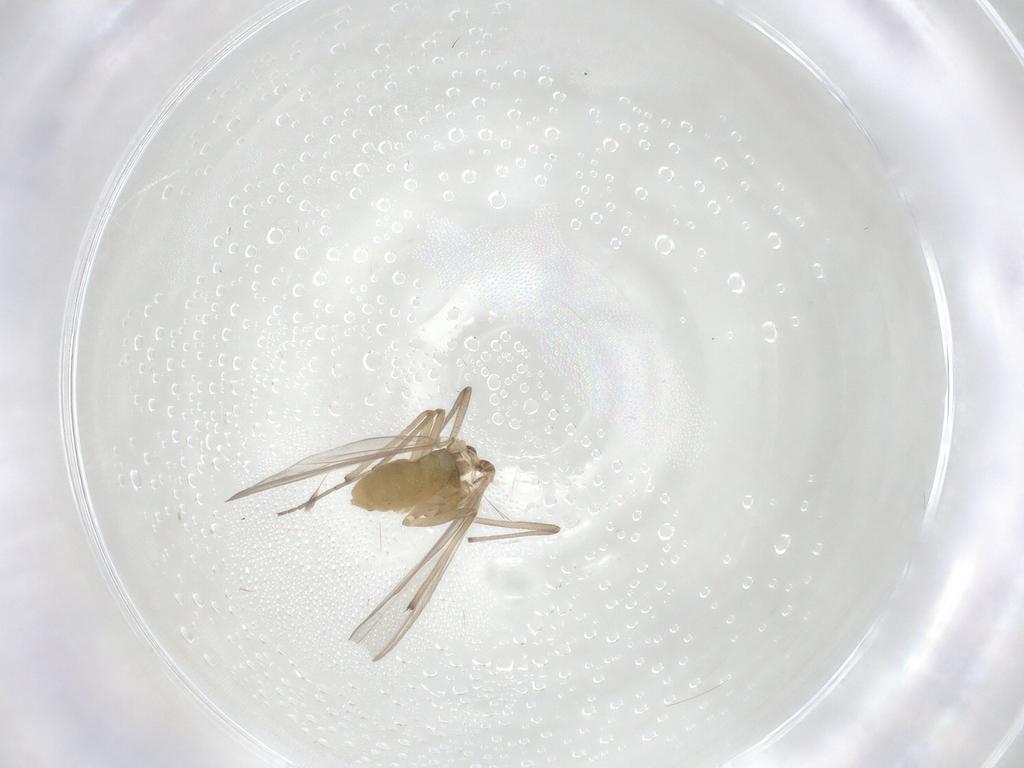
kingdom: Animalia
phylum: Arthropoda
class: Insecta
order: Diptera
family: Chironomidae
